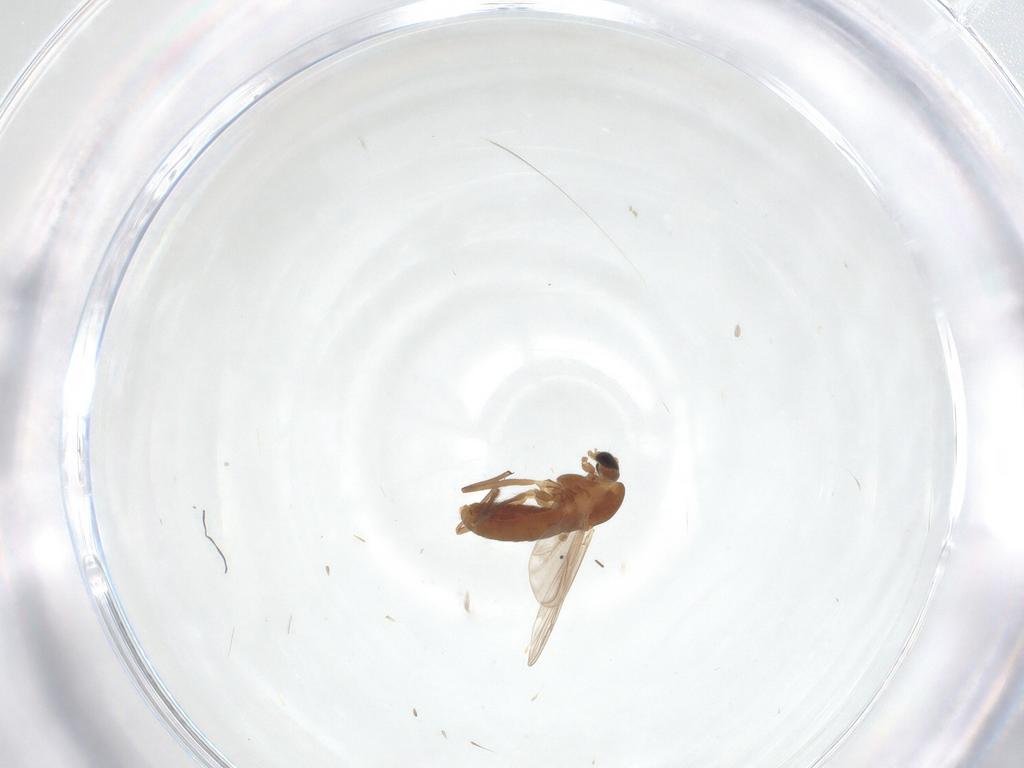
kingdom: Animalia
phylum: Arthropoda
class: Insecta
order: Diptera
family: Chironomidae
